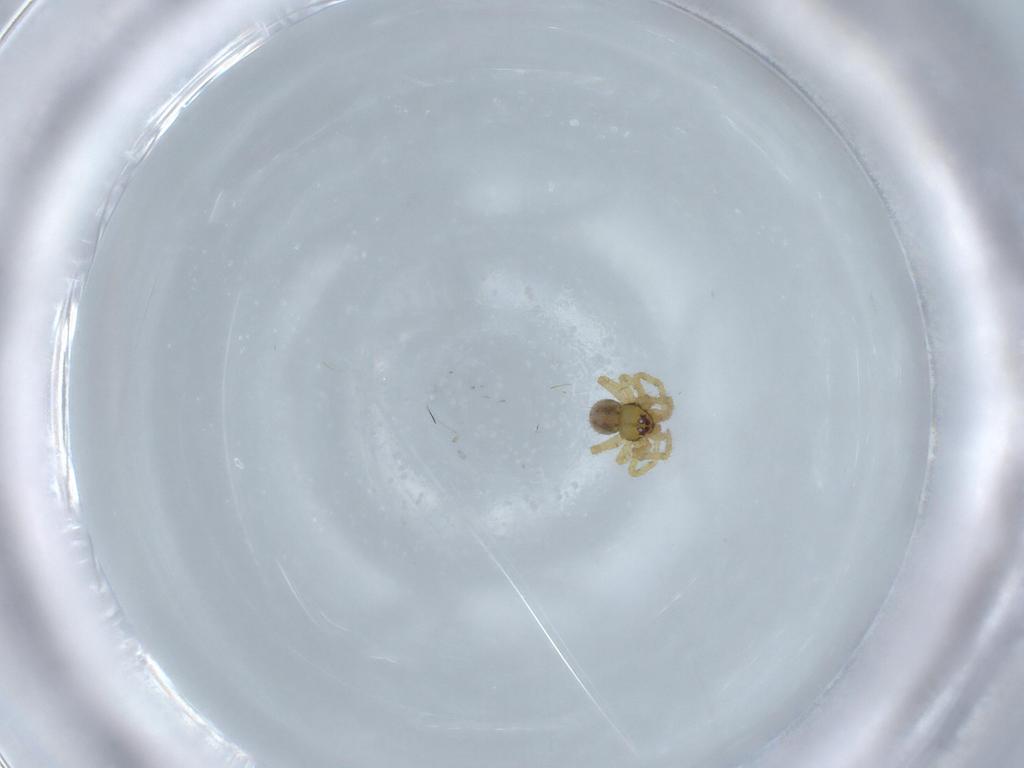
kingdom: Animalia
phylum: Arthropoda
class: Arachnida
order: Araneae
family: Theridiidae
